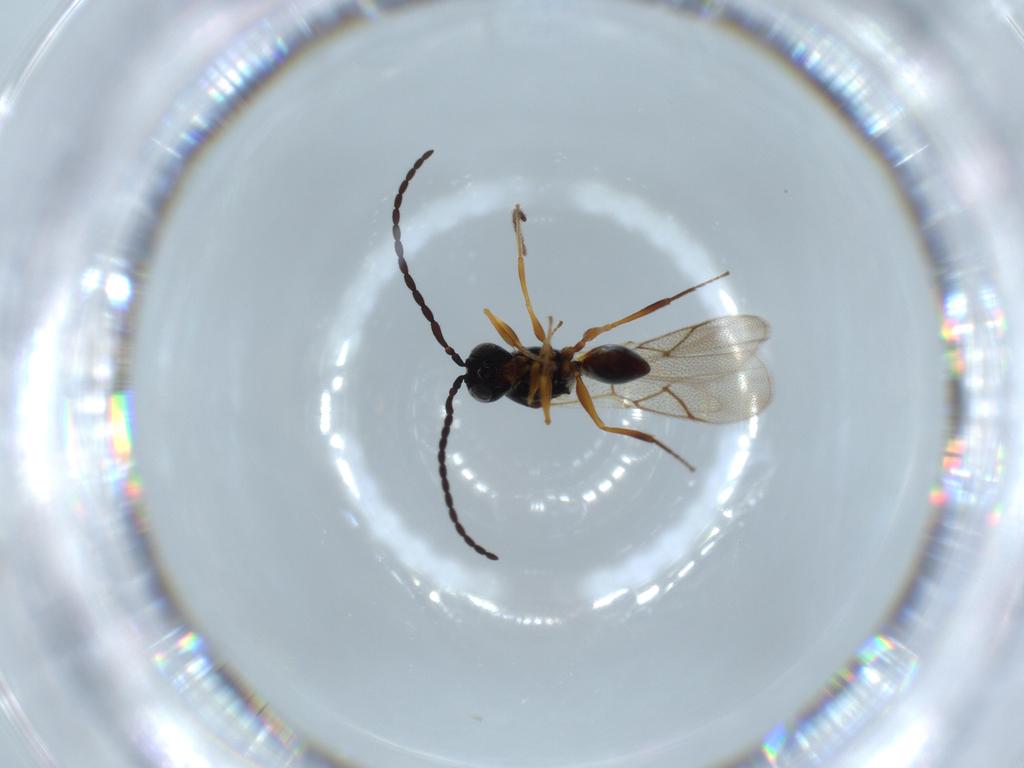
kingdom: Animalia
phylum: Arthropoda
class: Insecta
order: Hymenoptera
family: Figitidae
